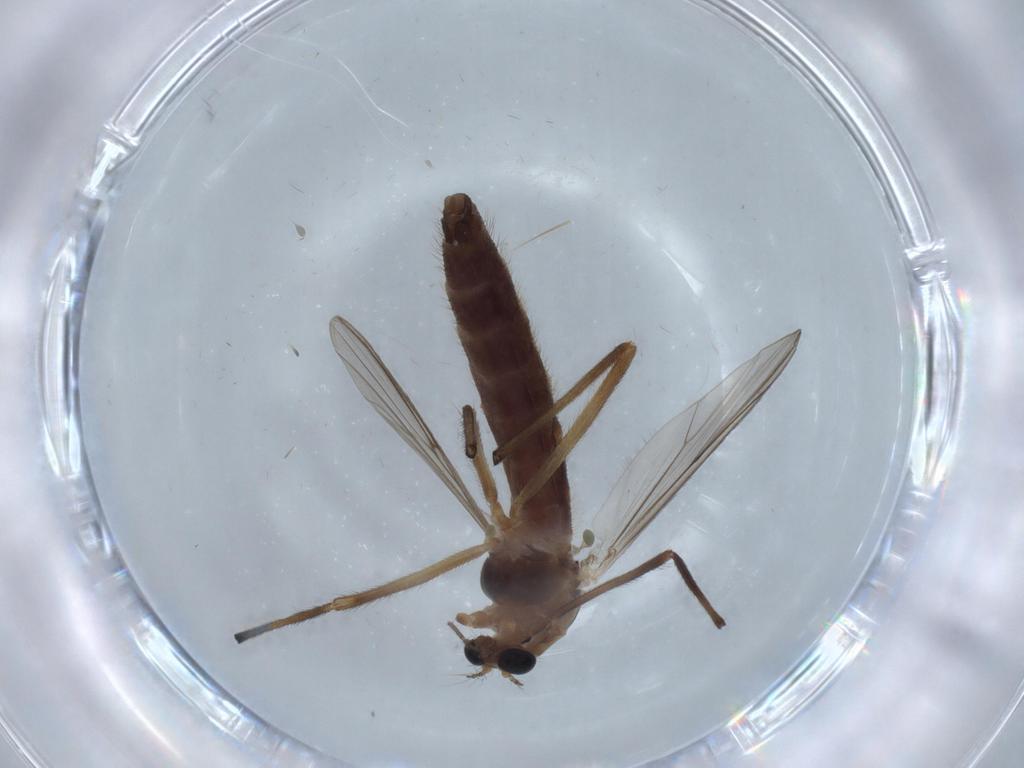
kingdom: Animalia
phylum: Arthropoda
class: Insecta
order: Diptera
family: Chironomidae
